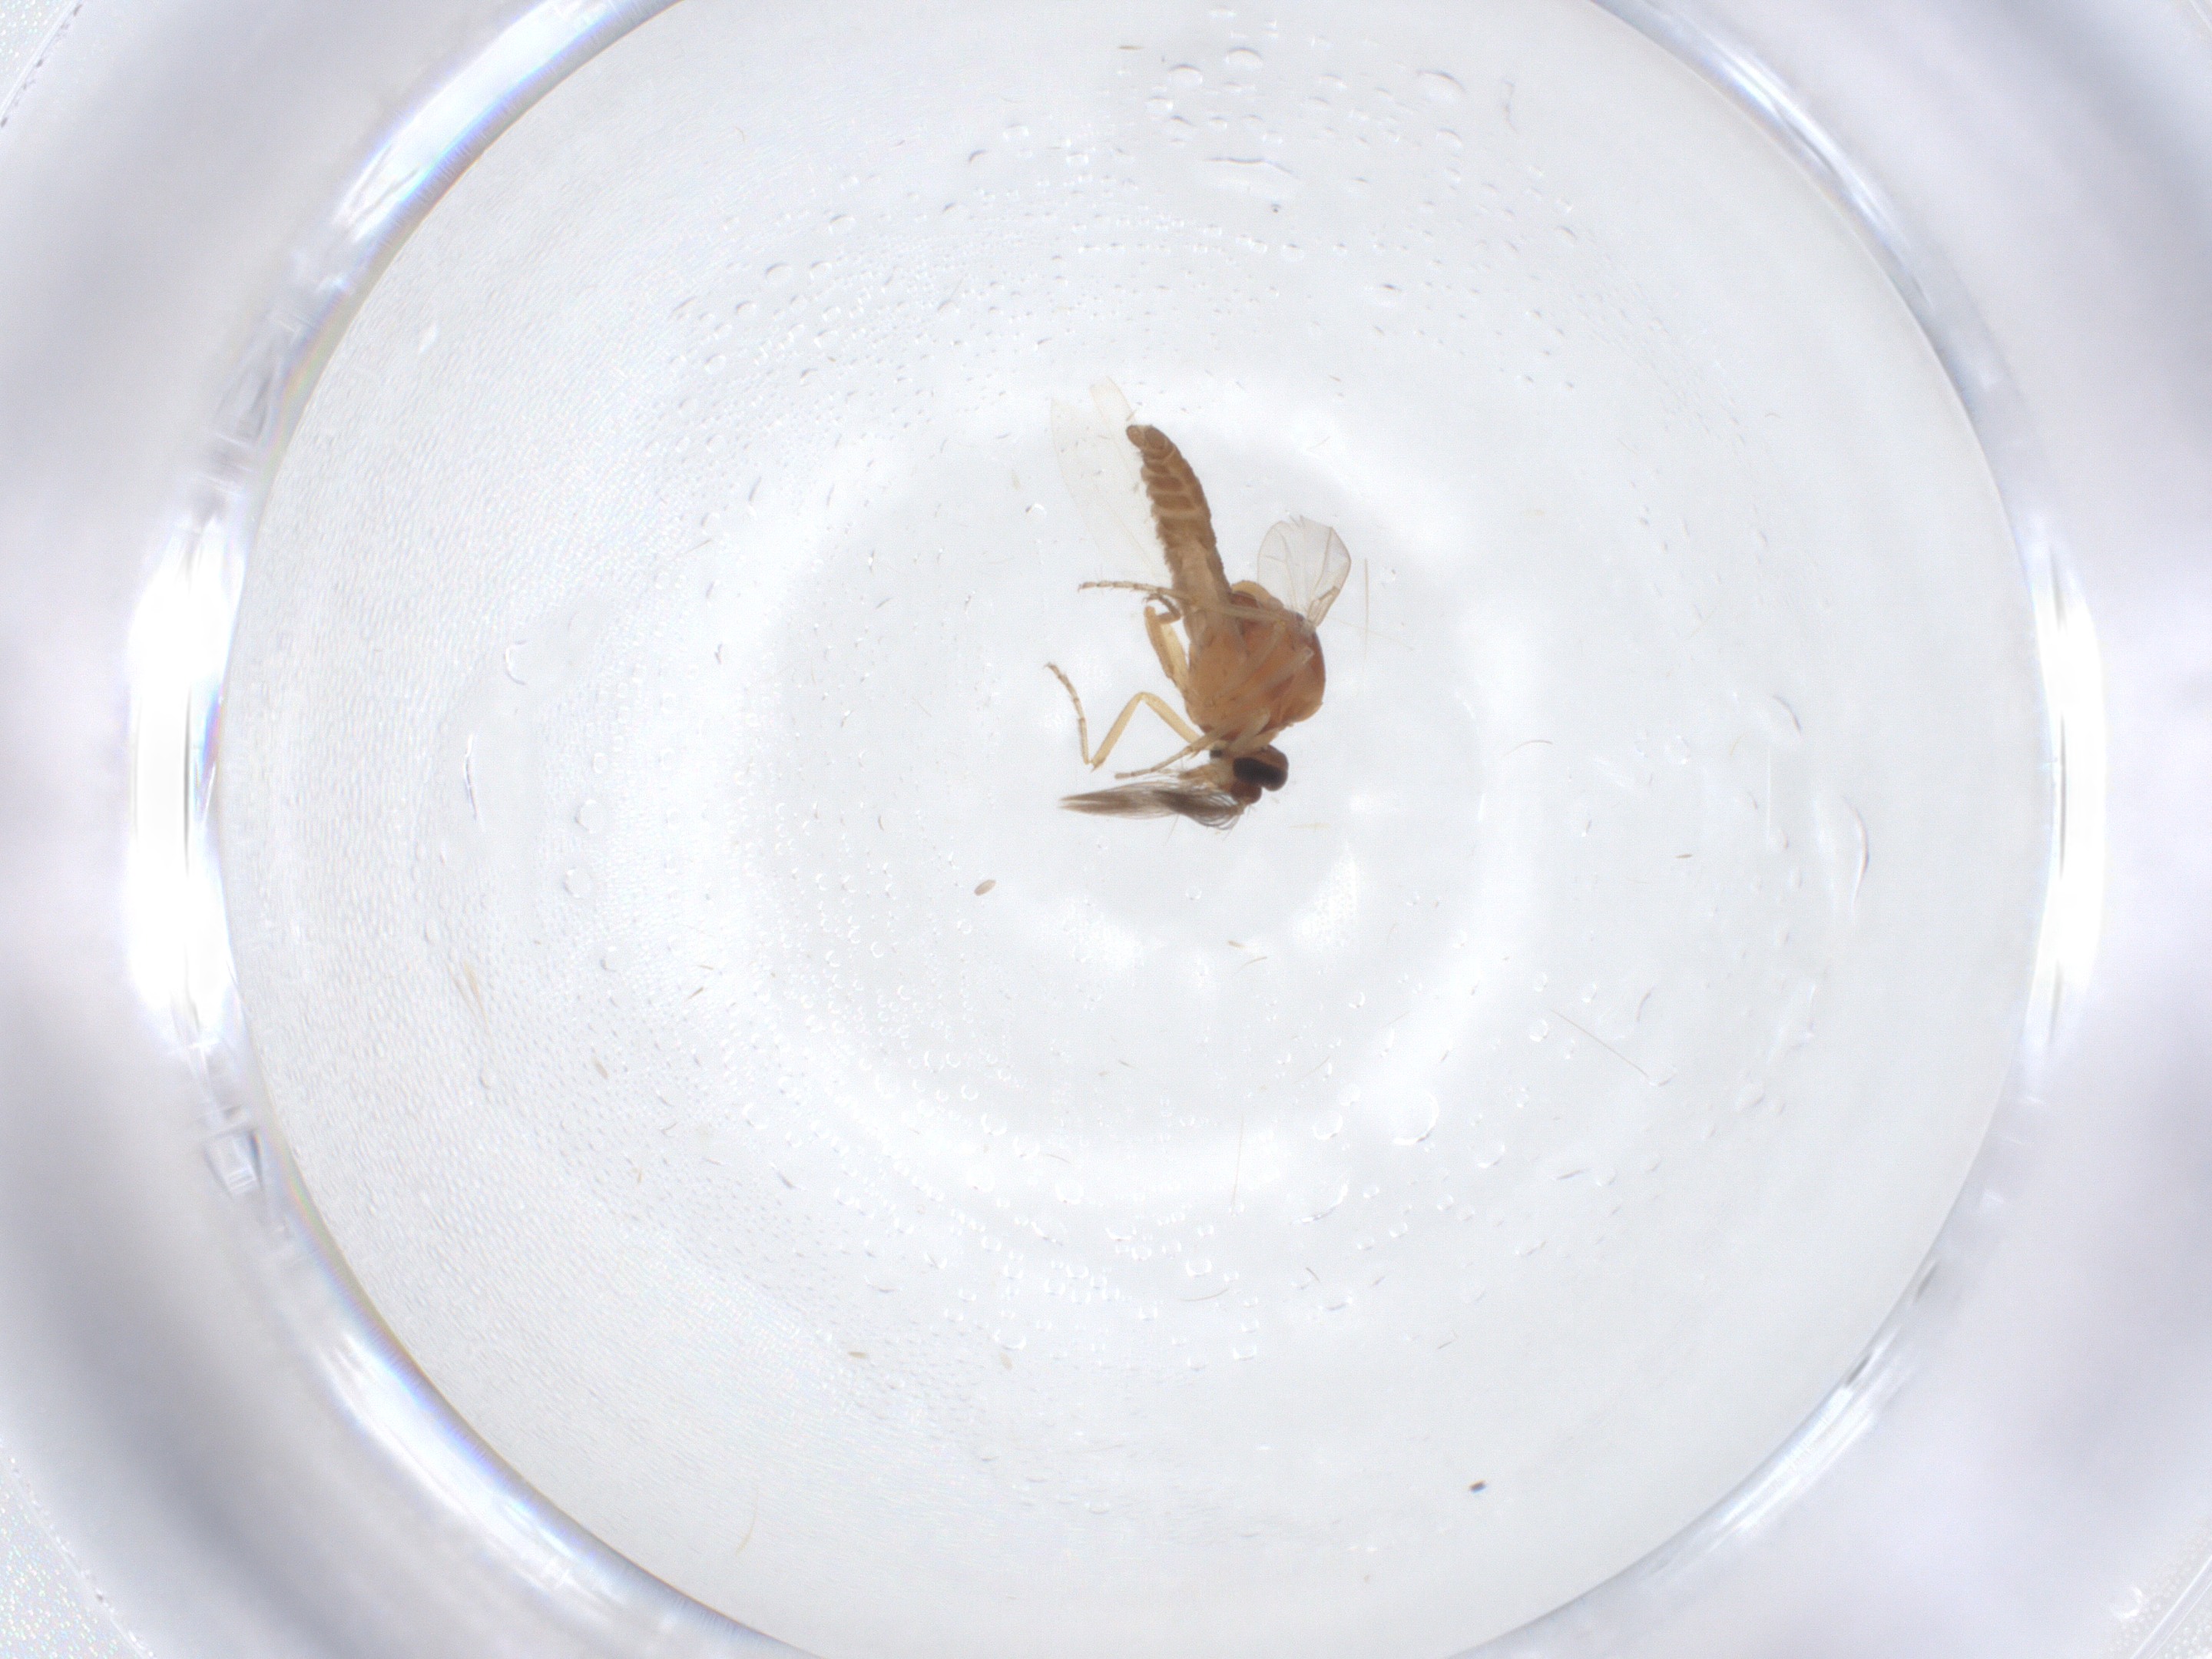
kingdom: Animalia
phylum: Arthropoda
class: Insecta
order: Diptera
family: Ceratopogonidae
